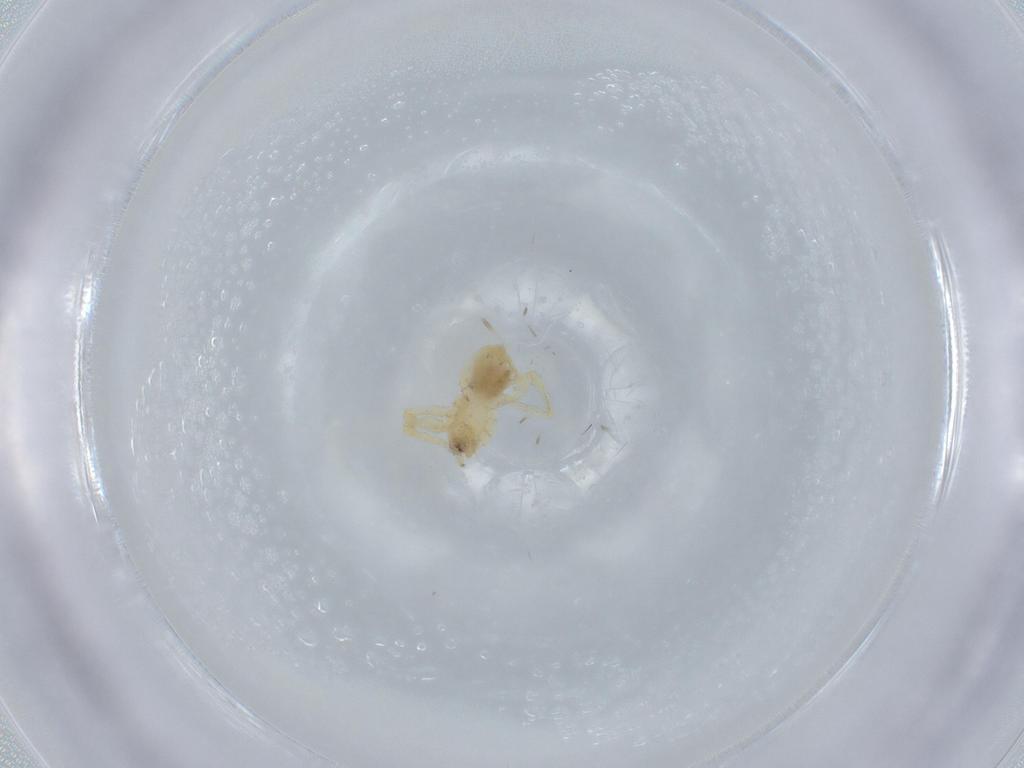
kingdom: Animalia
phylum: Arthropoda
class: Arachnida
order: Araneae
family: Oonopidae
